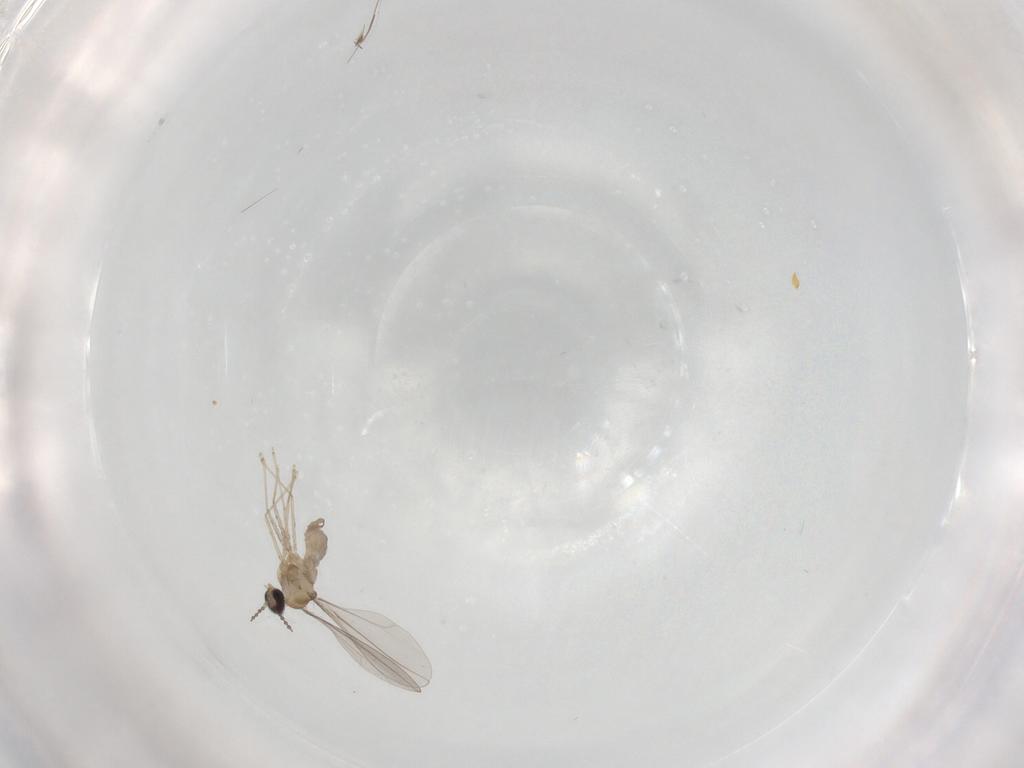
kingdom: Animalia
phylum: Arthropoda
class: Insecta
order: Diptera
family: Cecidomyiidae
